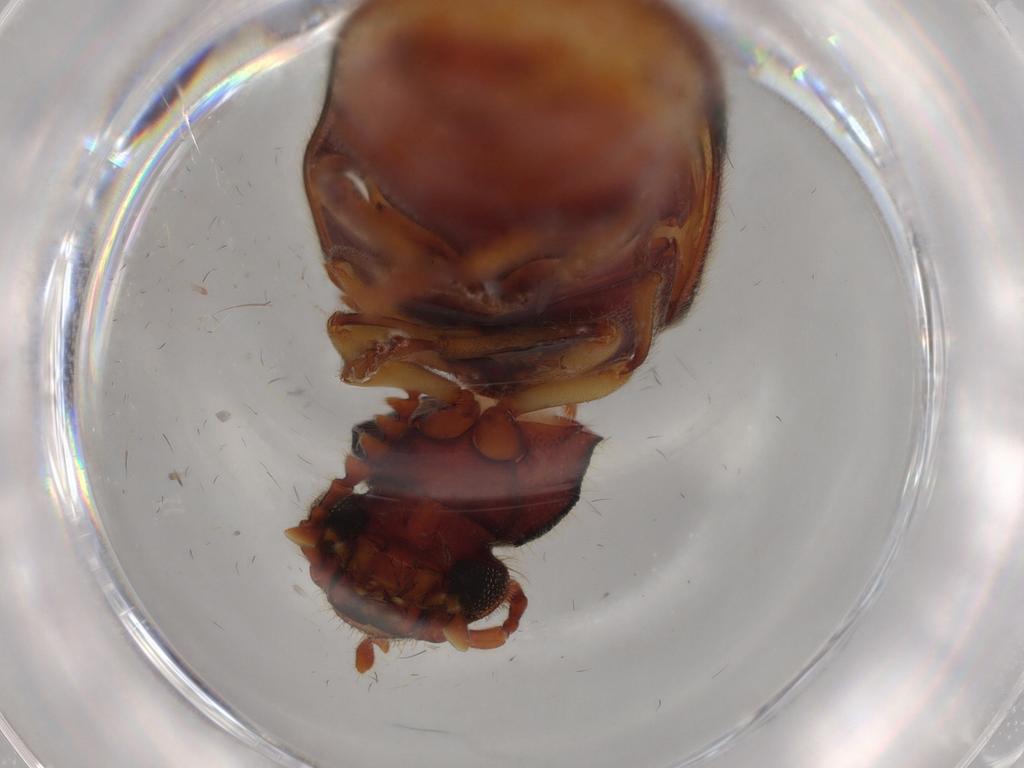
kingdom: Animalia
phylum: Arthropoda
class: Insecta
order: Coleoptera
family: Mycteridae
